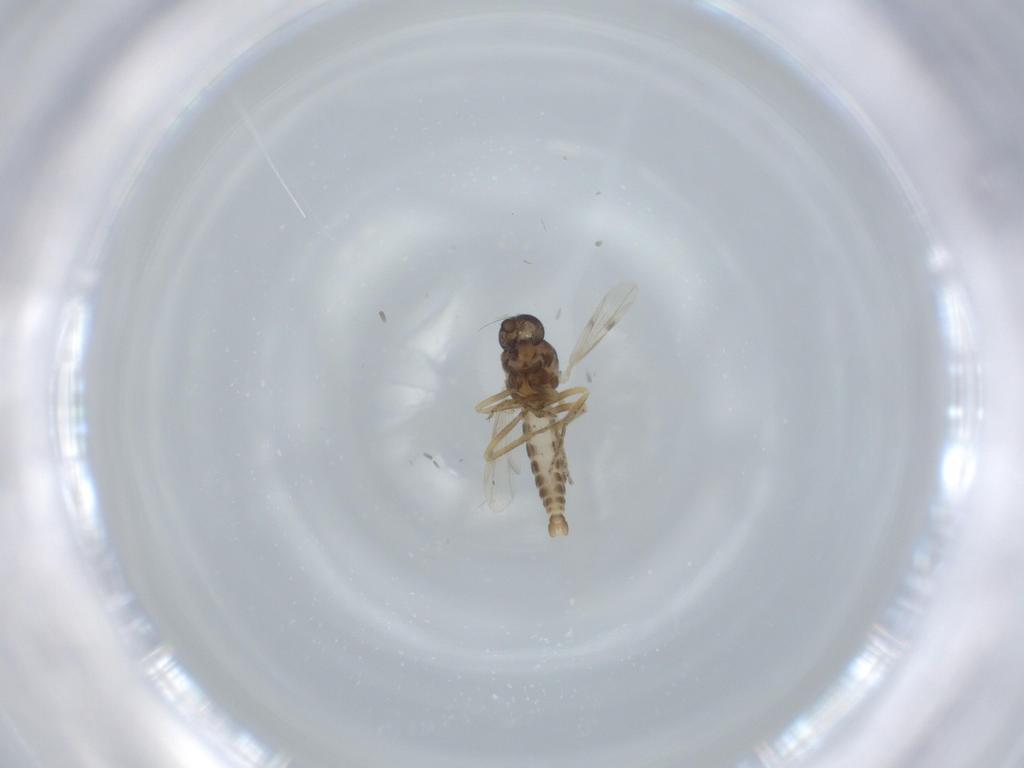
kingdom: Animalia
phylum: Arthropoda
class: Insecta
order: Diptera
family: Ceratopogonidae
